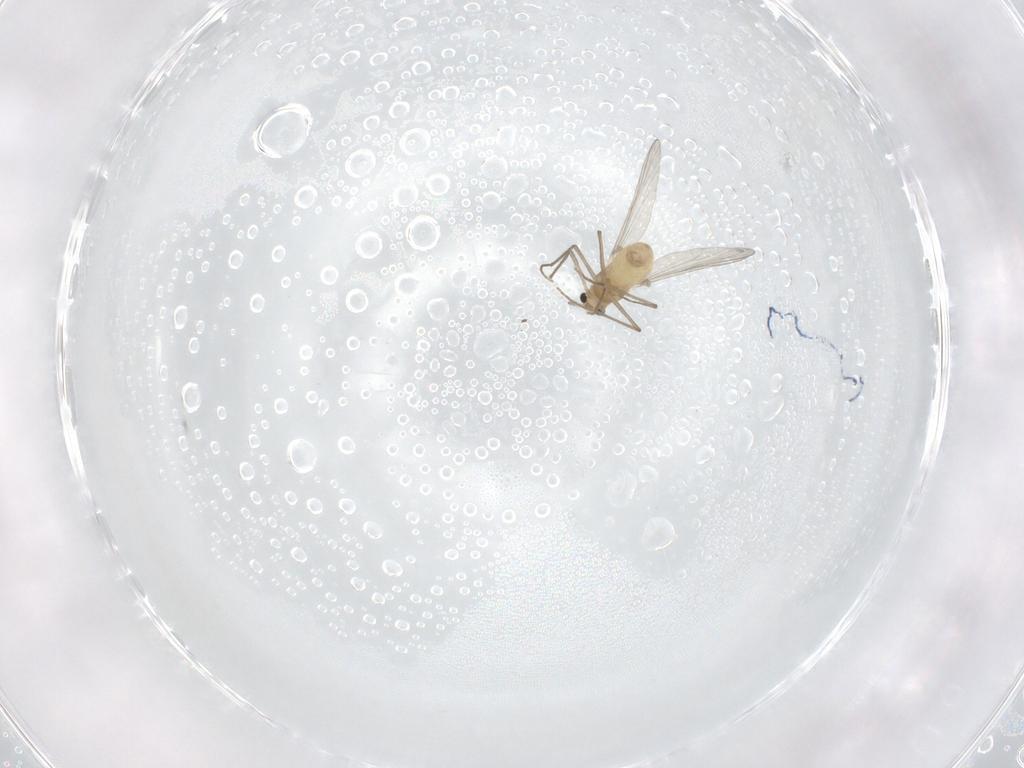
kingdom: Animalia
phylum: Arthropoda
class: Insecta
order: Diptera
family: Chironomidae
